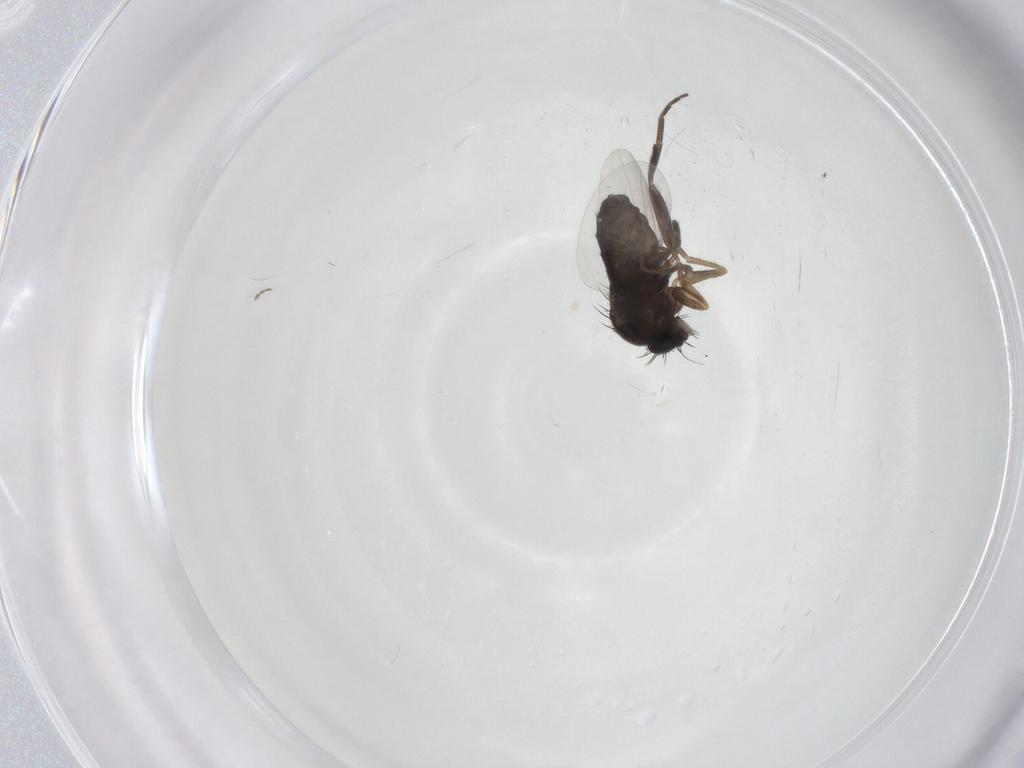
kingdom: Animalia
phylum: Arthropoda
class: Insecta
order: Diptera
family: Phoridae
